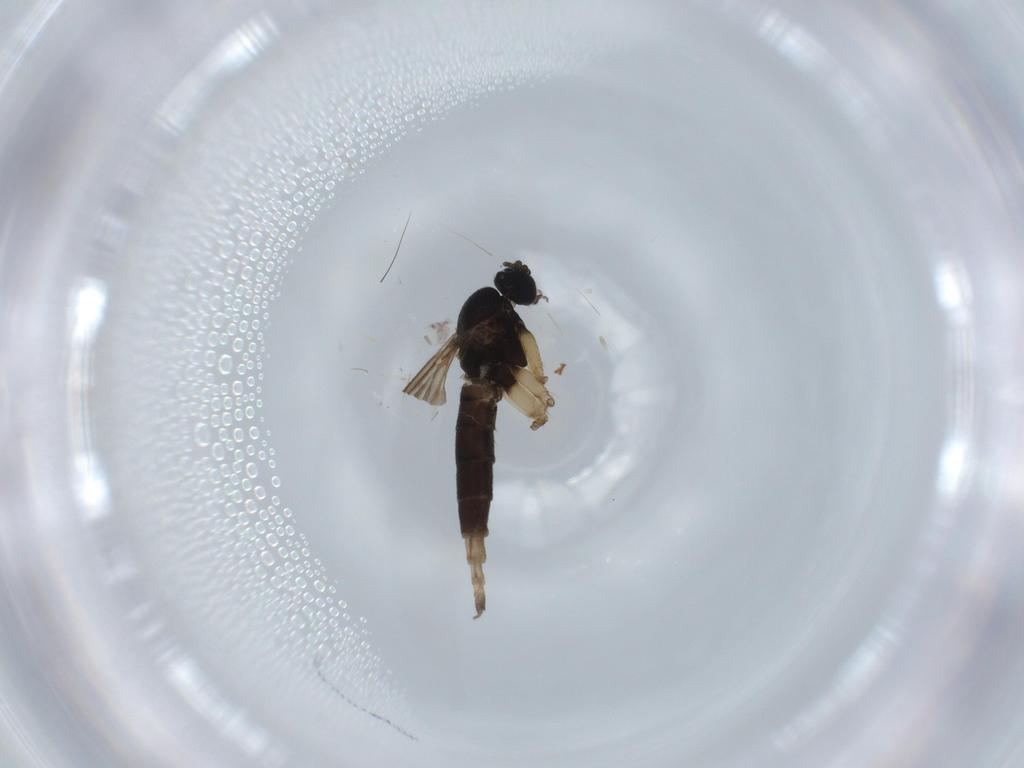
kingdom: Animalia
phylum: Arthropoda
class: Insecta
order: Diptera
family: Sciaridae
